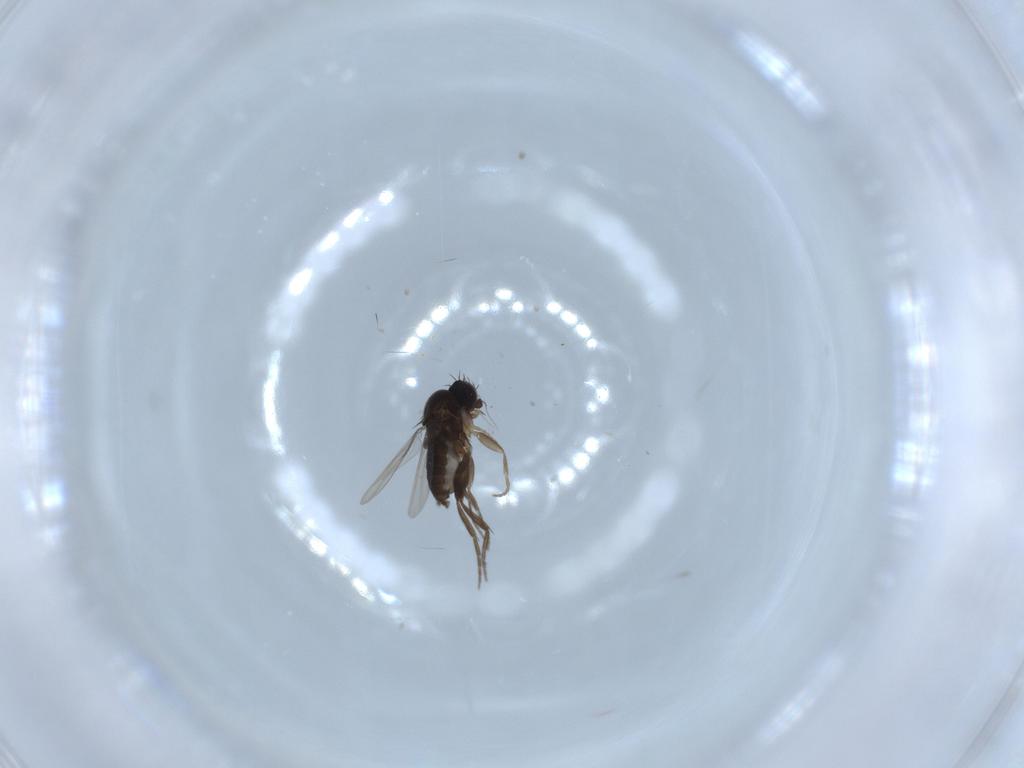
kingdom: Animalia
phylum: Arthropoda
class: Insecta
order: Diptera
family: Phoridae
